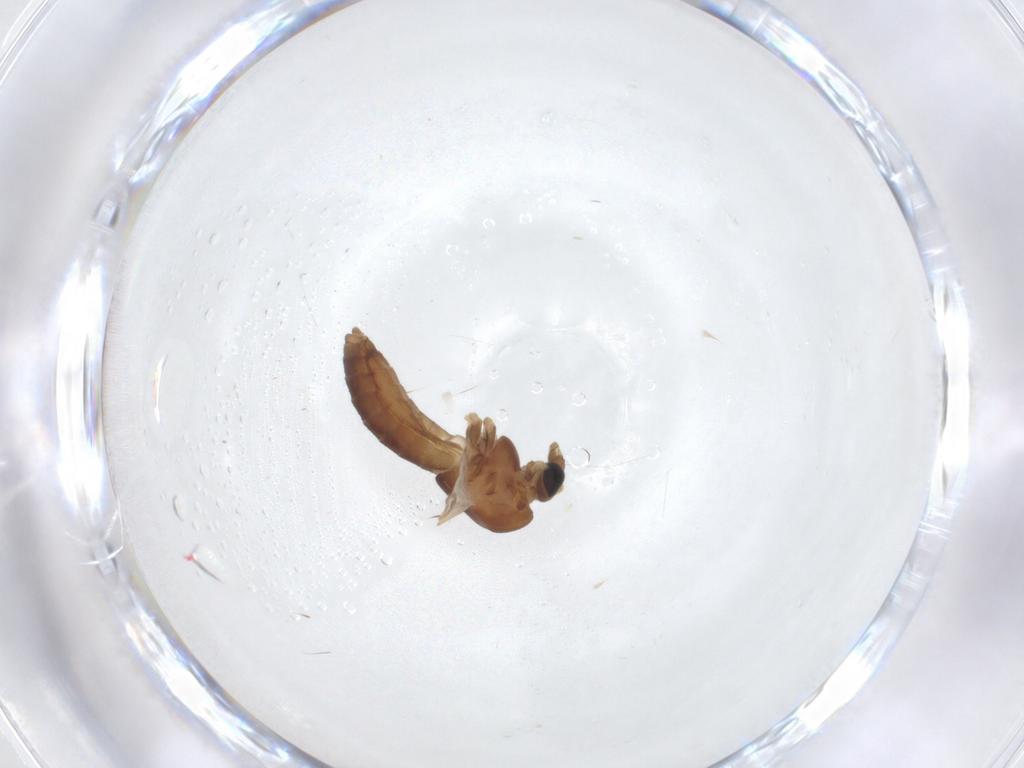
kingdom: Animalia
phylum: Arthropoda
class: Insecta
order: Diptera
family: Chironomidae
